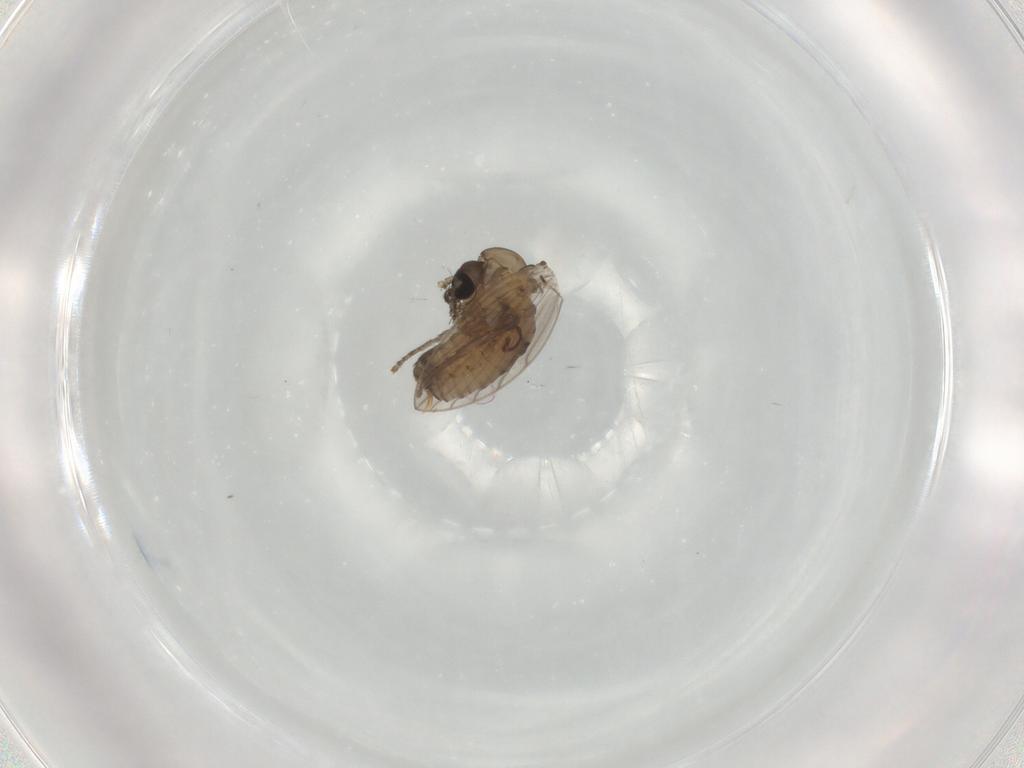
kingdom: Animalia
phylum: Arthropoda
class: Insecta
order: Diptera
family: Psychodidae
